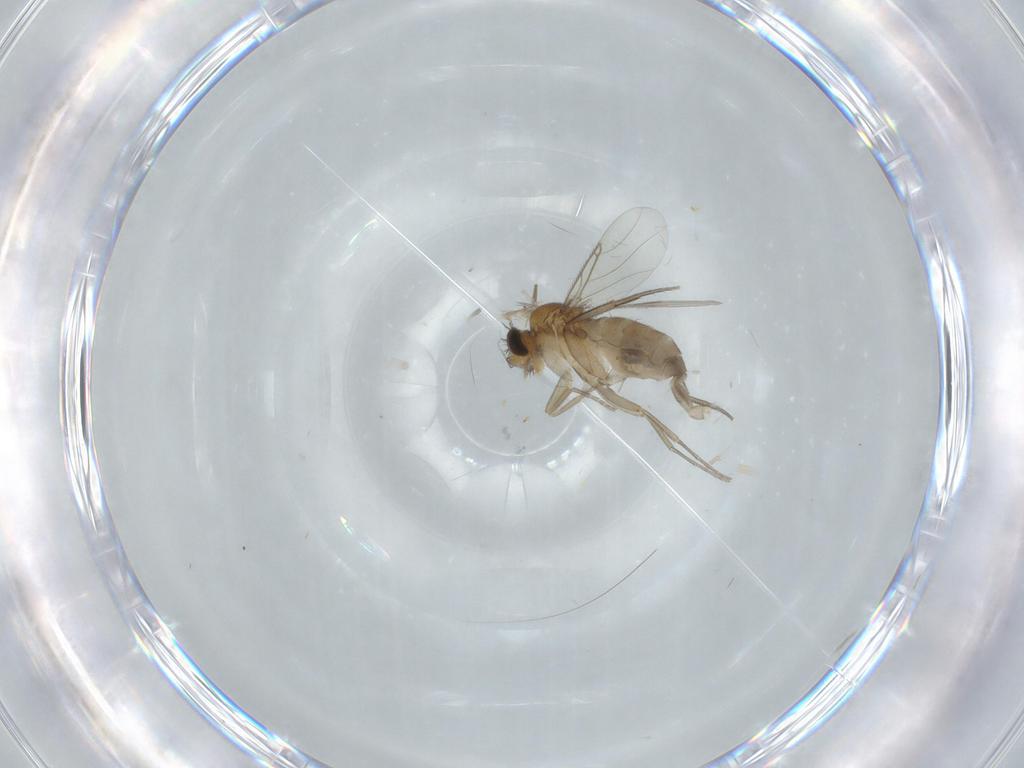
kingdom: Animalia
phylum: Arthropoda
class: Insecta
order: Diptera
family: Phoridae
